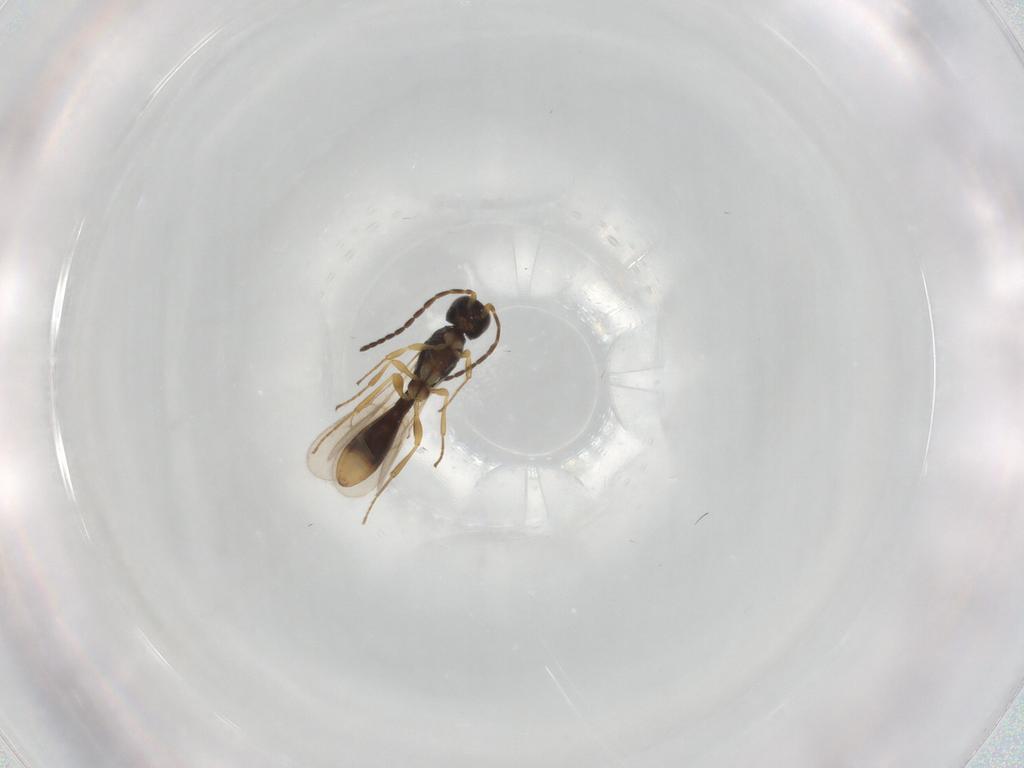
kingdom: Animalia
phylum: Arthropoda
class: Insecta
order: Hymenoptera
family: Scelionidae
